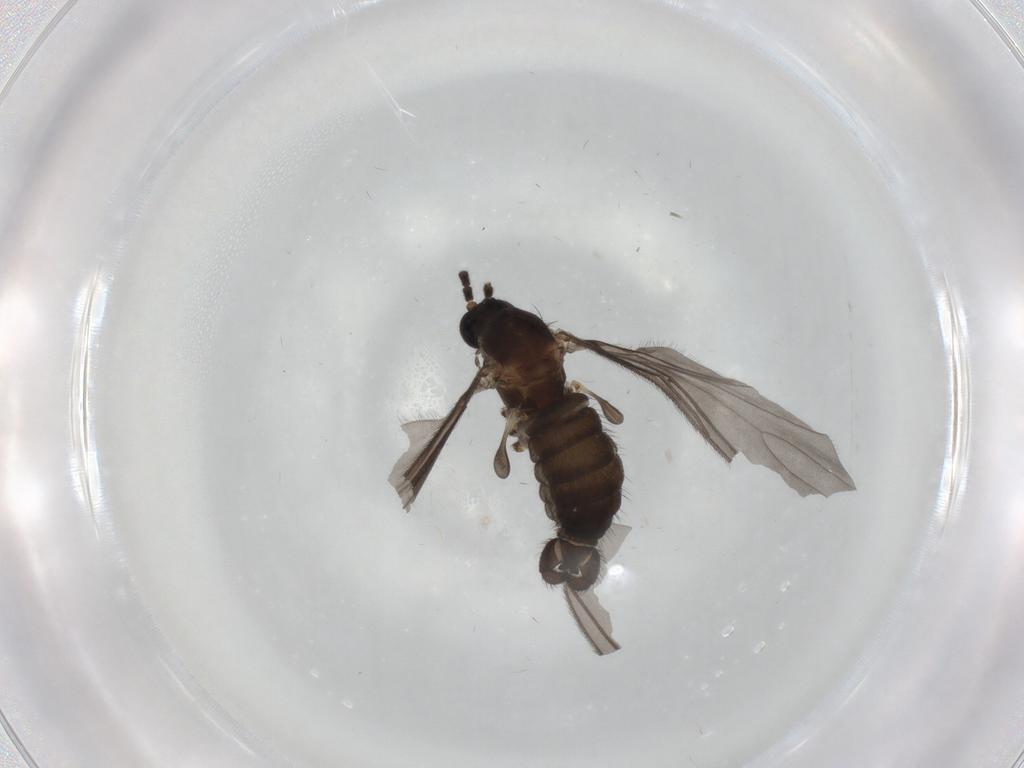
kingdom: Animalia
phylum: Arthropoda
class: Insecta
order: Diptera
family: Sciaridae
